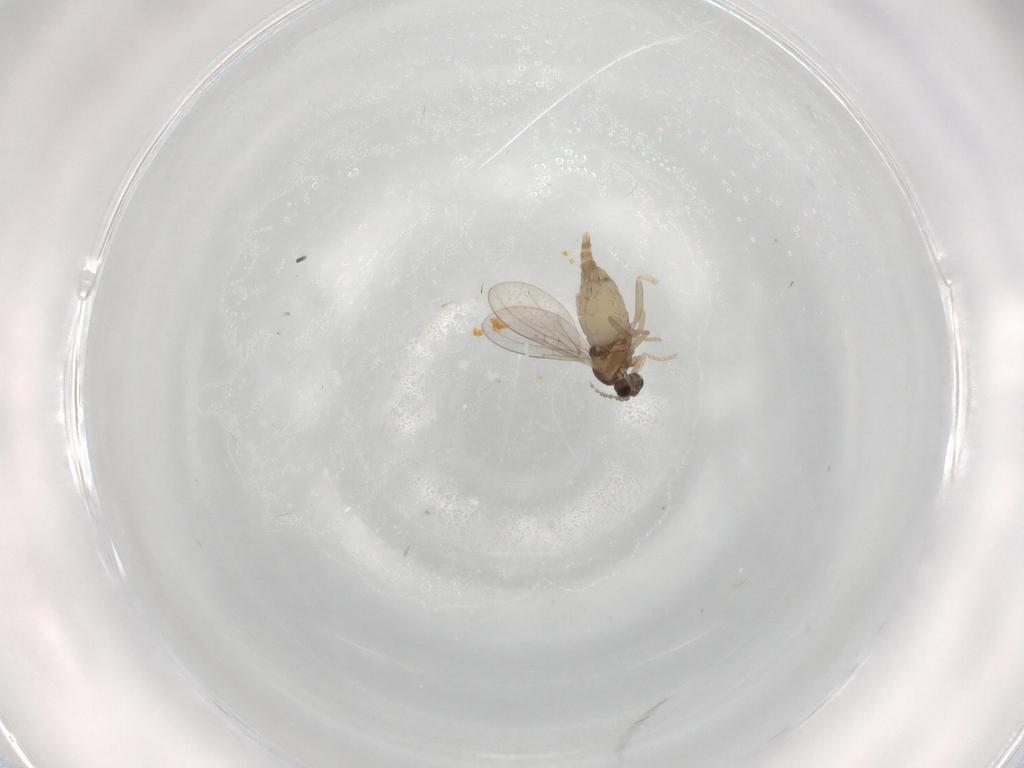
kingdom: Animalia
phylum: Arthropoda
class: Insecta
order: Diptera
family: Cecidomyiidae
